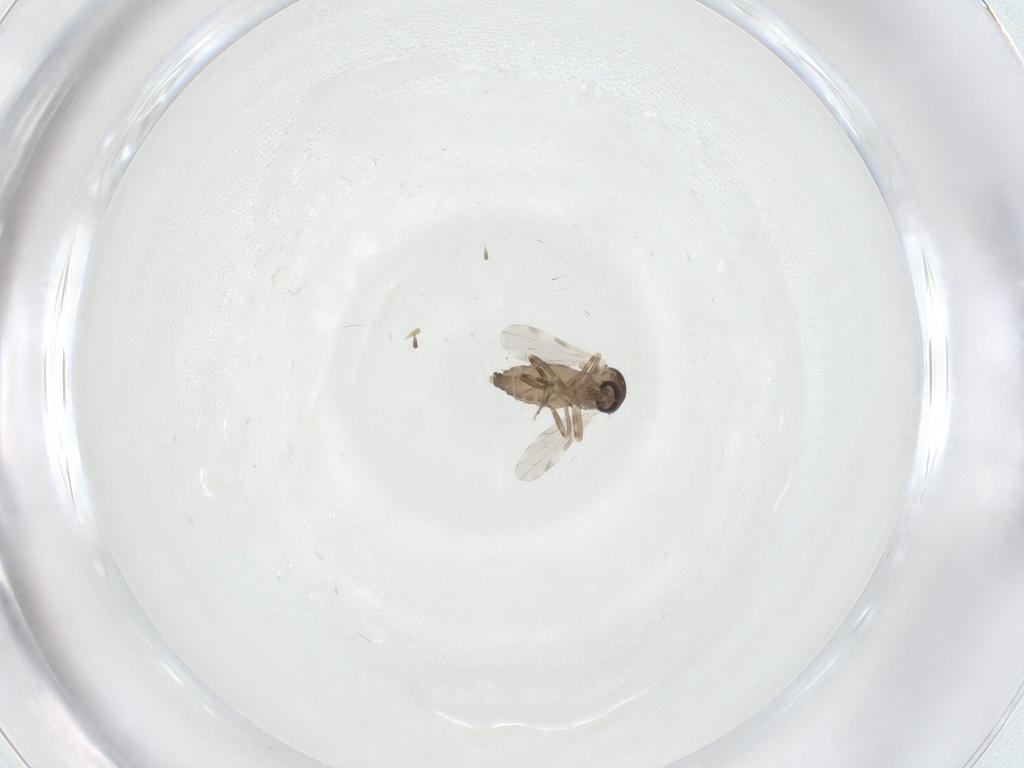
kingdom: Animalia
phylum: Arthropoda
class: Insecta
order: Diptera
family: Ceratopogonidae
